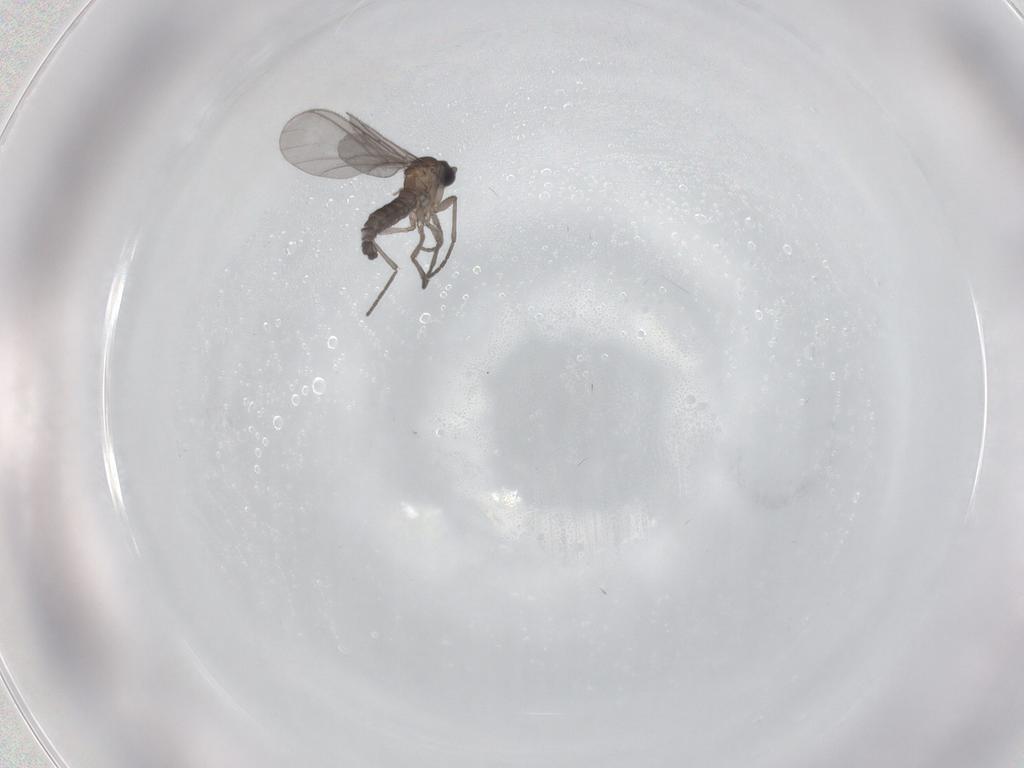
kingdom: Animalia
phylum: Arthropoda
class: Insecta
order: Diptera
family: Sciaridae
